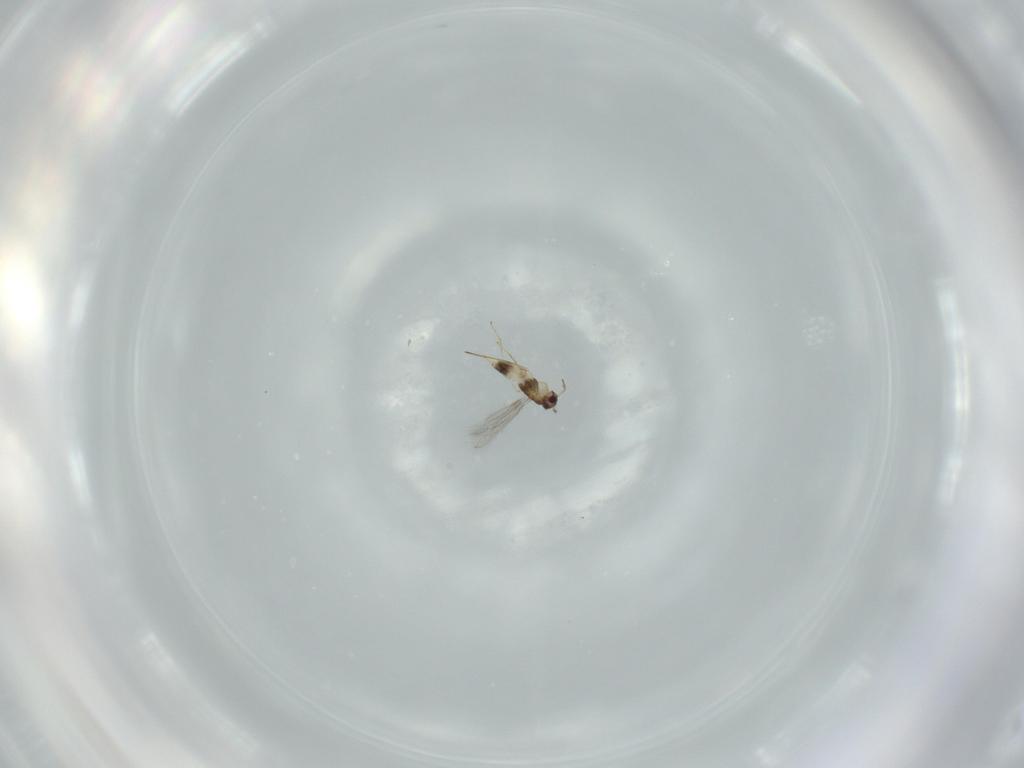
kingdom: Animalia
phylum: Arthropoda
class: Insecta
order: Hymenoptera
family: Mymaridae
